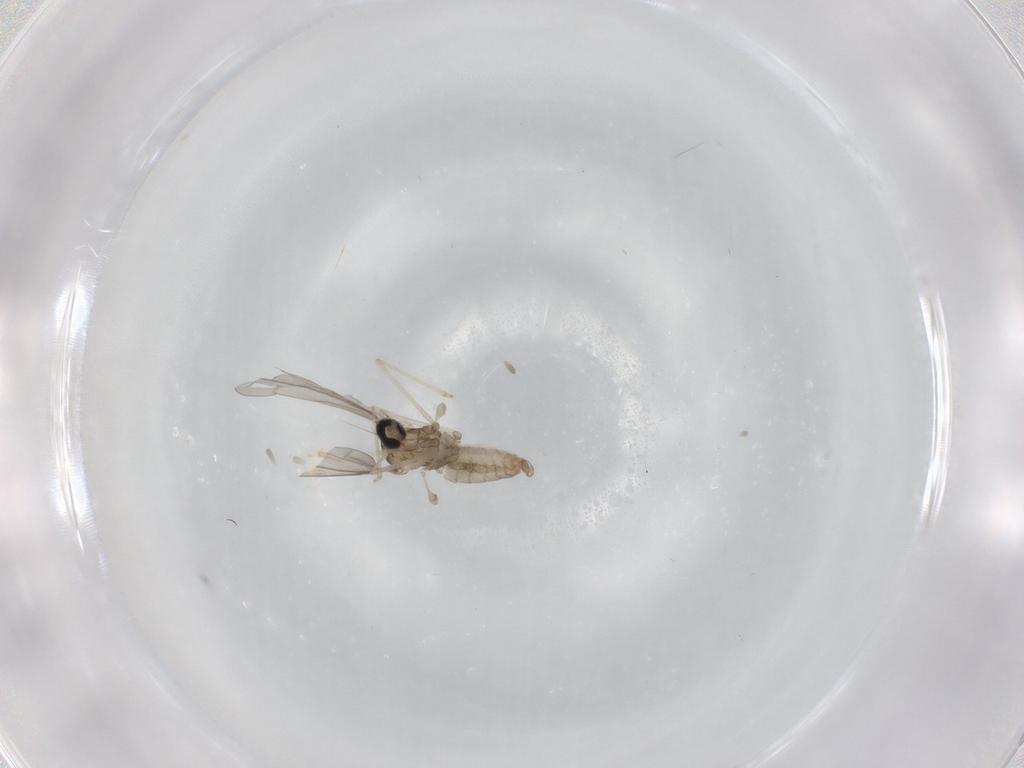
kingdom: Animalia
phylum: Arthropoda
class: Insecta
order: Diptera
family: Cecidomyiidae
